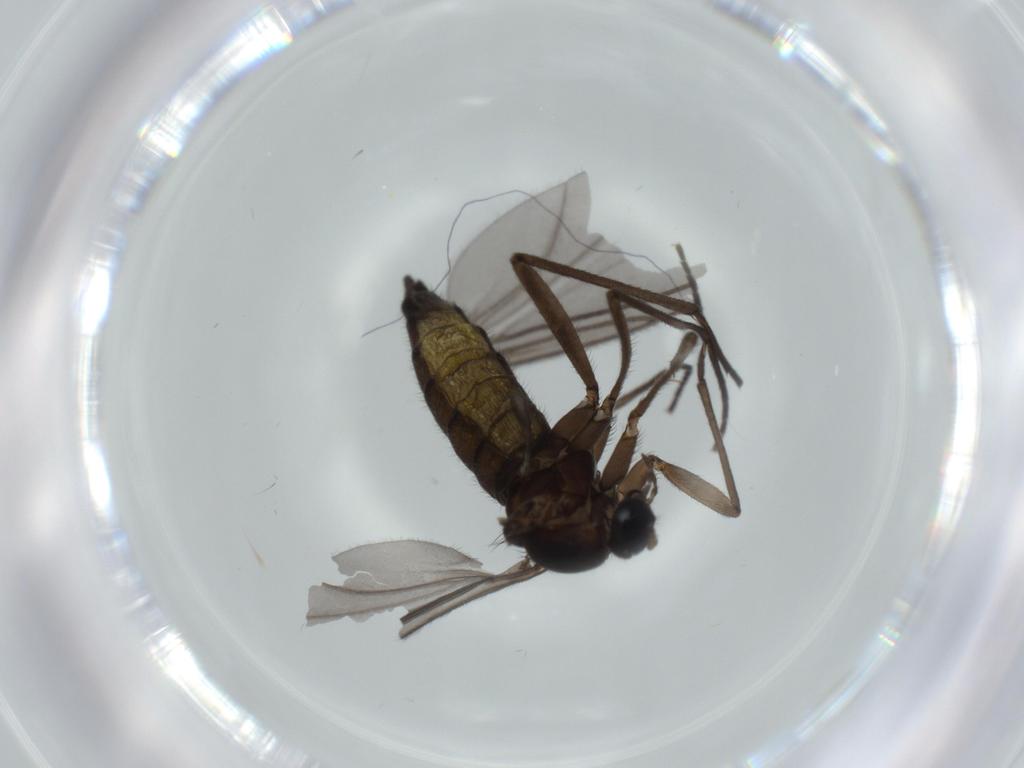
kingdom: Animalia
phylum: Arthropoda
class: Insecta
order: Diptera
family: Sciaridae
